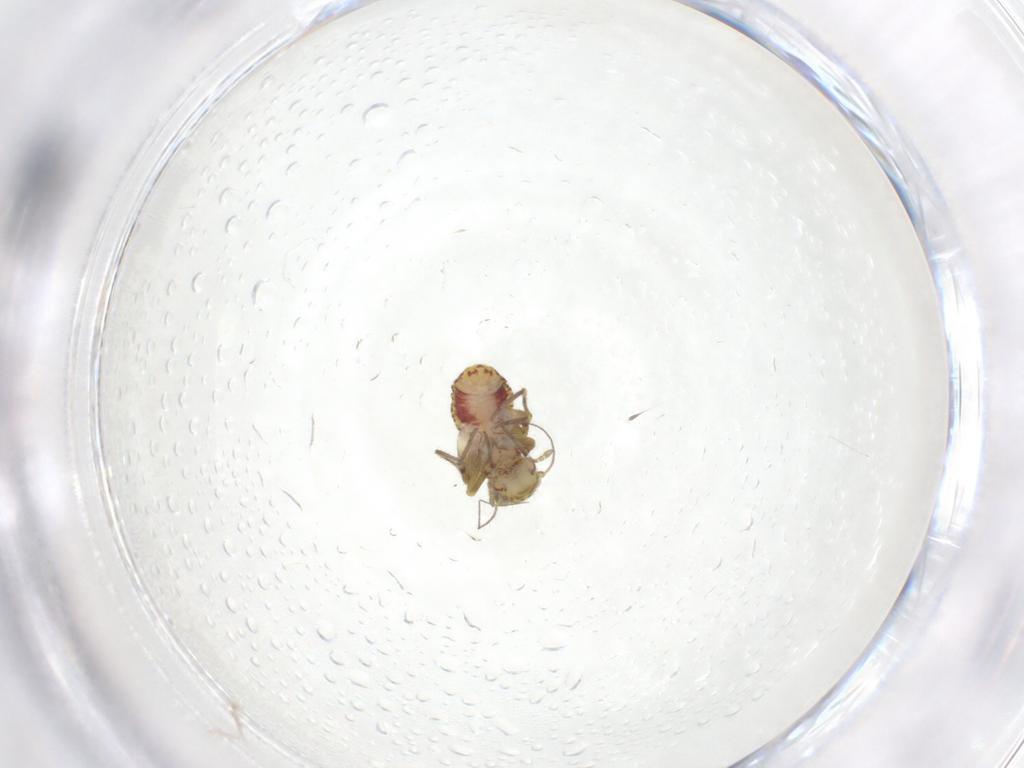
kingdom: Animalia
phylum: Arthropoda
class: Insecta
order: Psocodea
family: Philotarsidae
